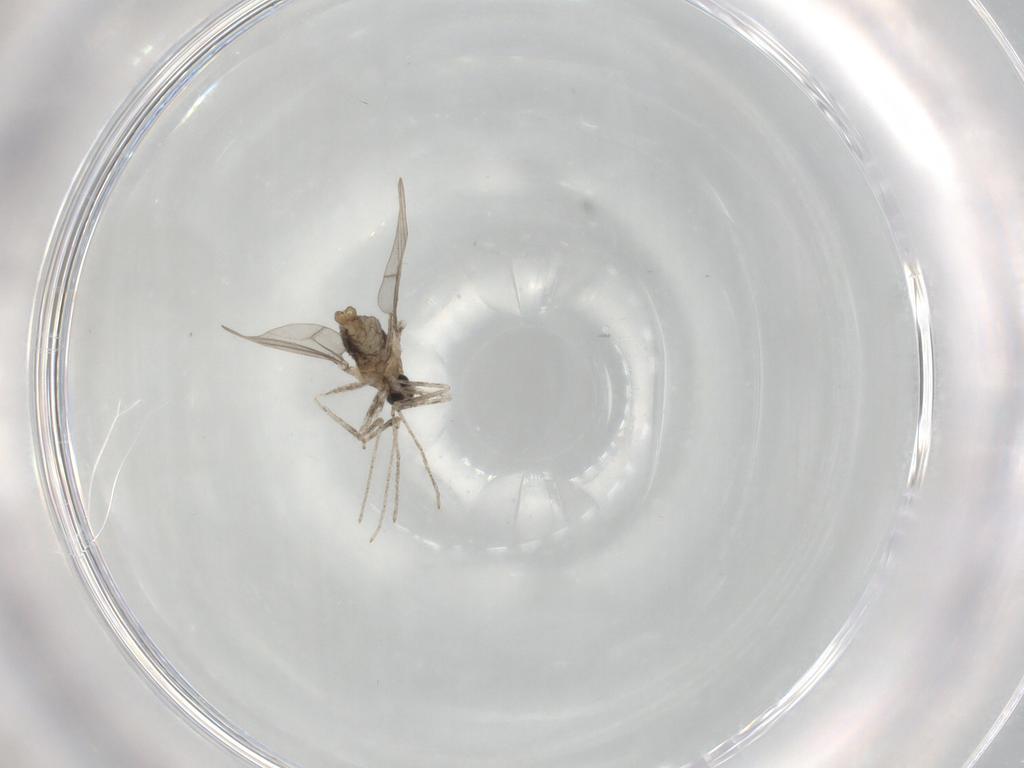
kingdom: Animalia
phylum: Arthropoda
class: Insecta
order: Diptera
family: Cecidomyiidae
